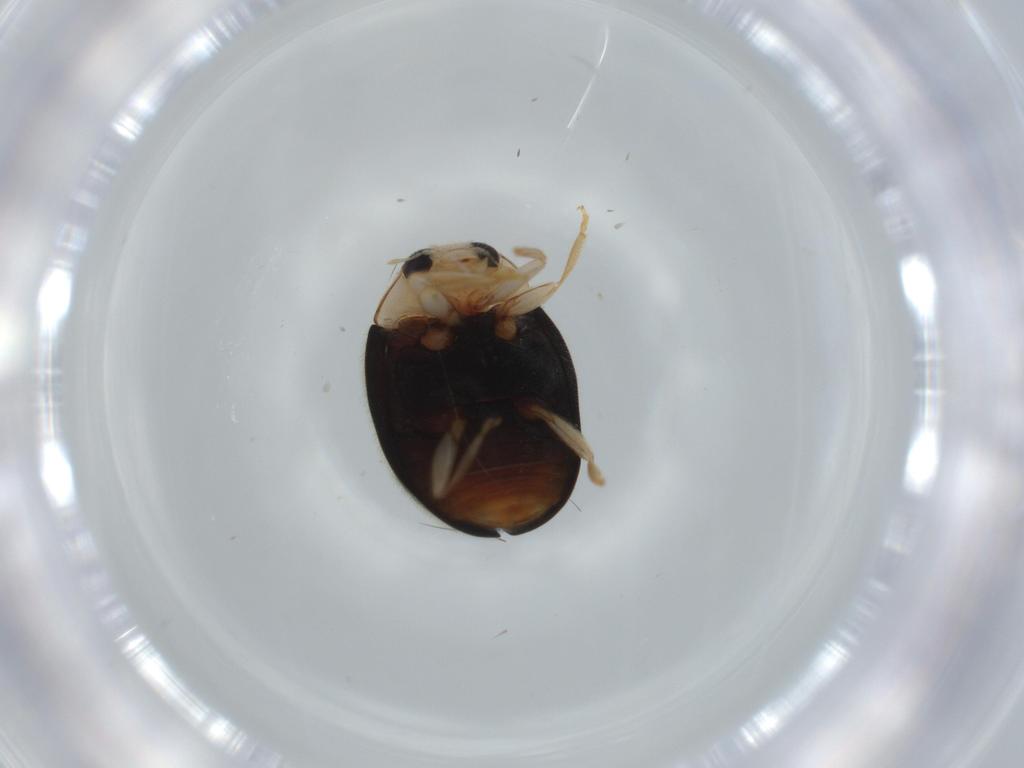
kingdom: Animalia
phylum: Arthropoda
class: Insecta
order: Coleoptera
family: Coccinellidae
